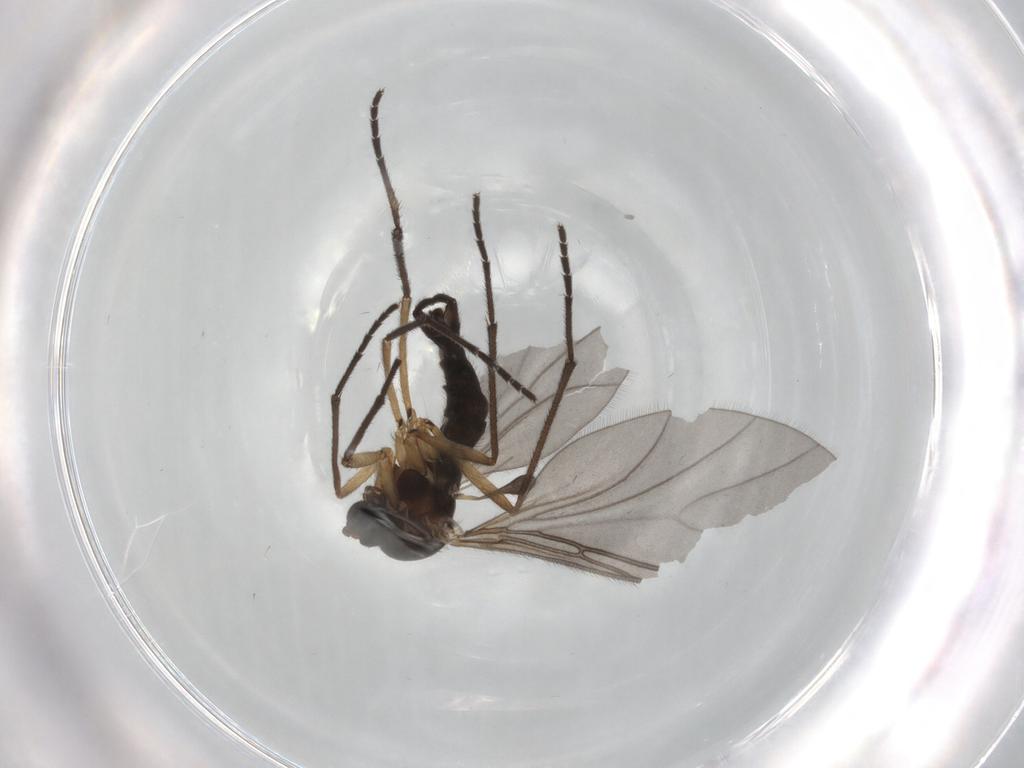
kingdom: Animalia
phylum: Arthropoda
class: Insecta
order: Diptera
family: Sciaridae
